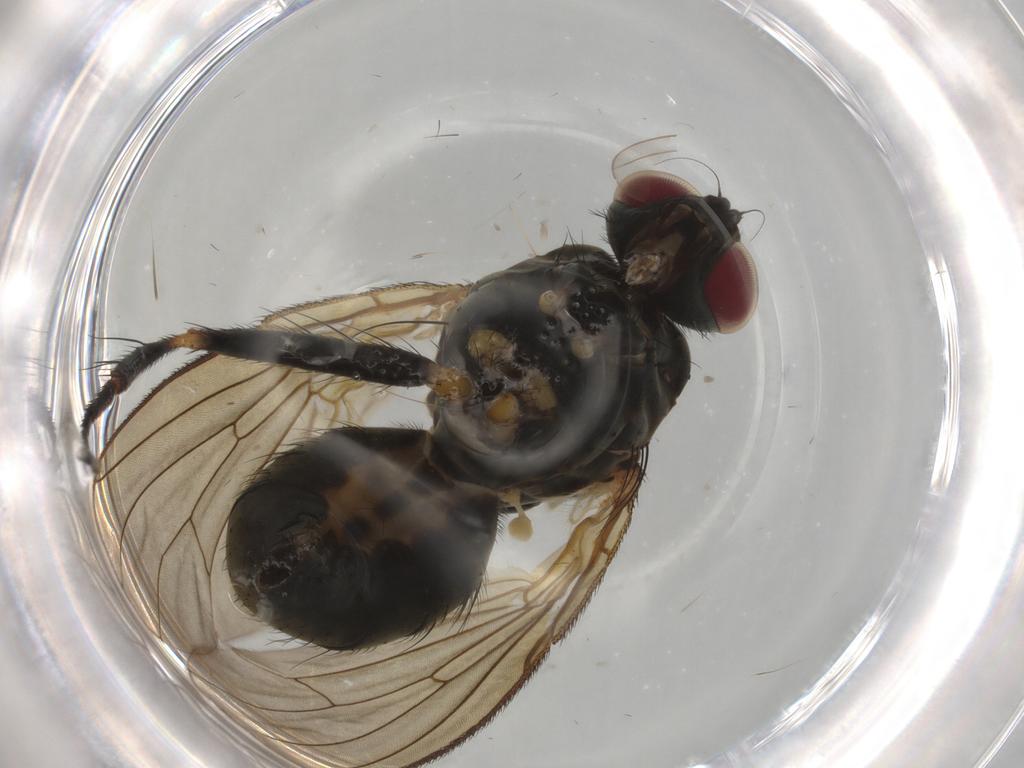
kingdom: Animalia
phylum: Arthropoda
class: Insecta
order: Diptera
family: Muscidae
